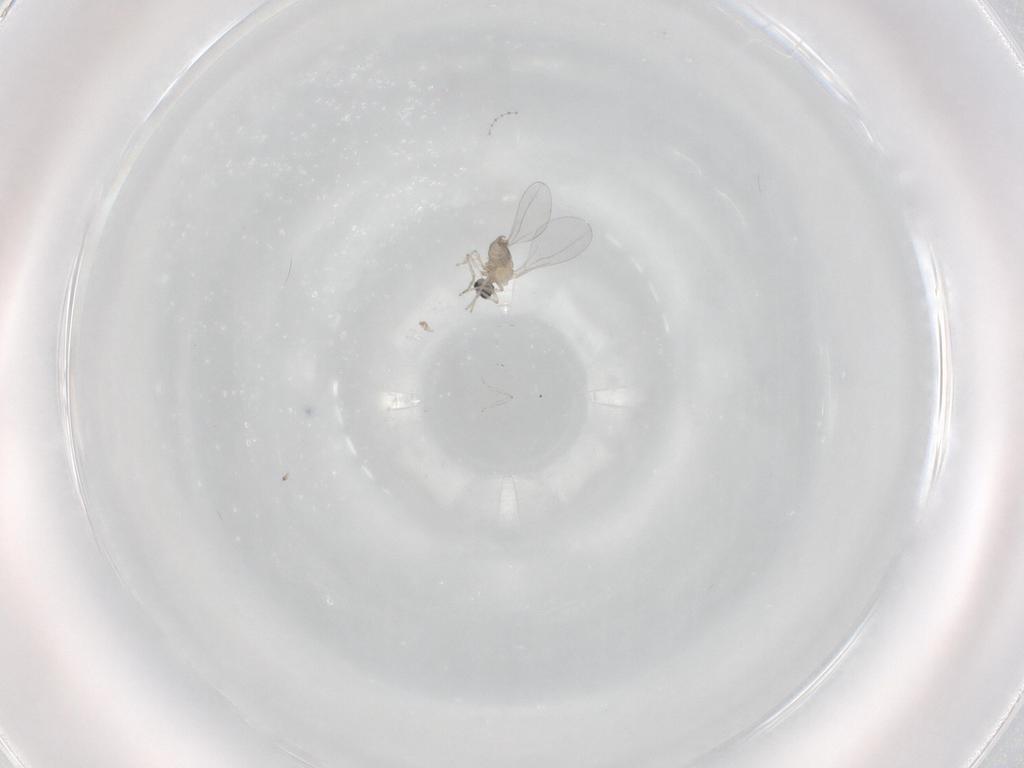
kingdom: Animalia
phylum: Arthropoda
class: Insecta
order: Diptera
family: Cecidomyiidae
